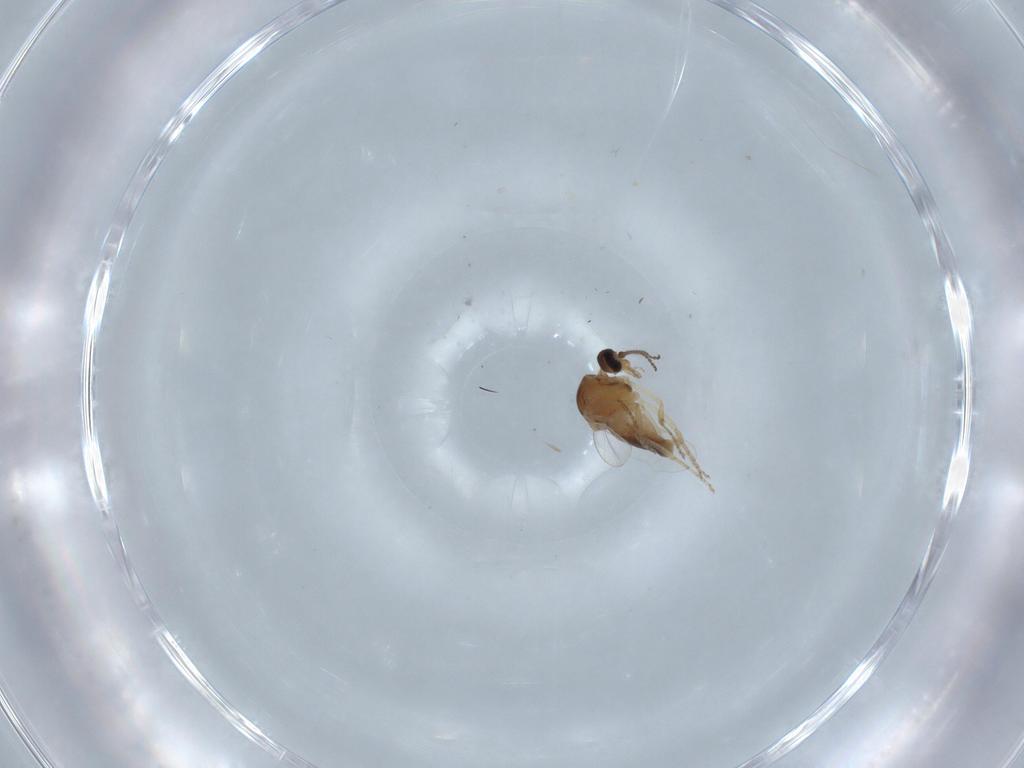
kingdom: Animalia
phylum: Arthropoda
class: Insecta
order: Diptera
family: Ceratopogonidae
